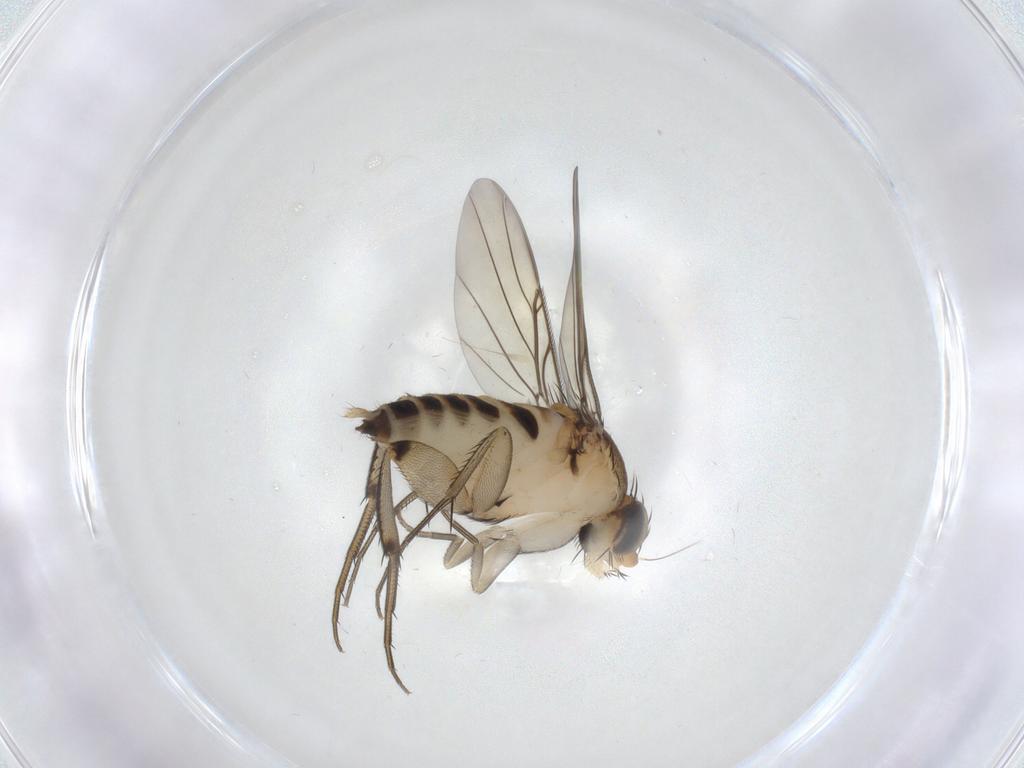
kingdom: Animalia
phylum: Arthropoda
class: Insecta
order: Diptera
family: Phoridae
